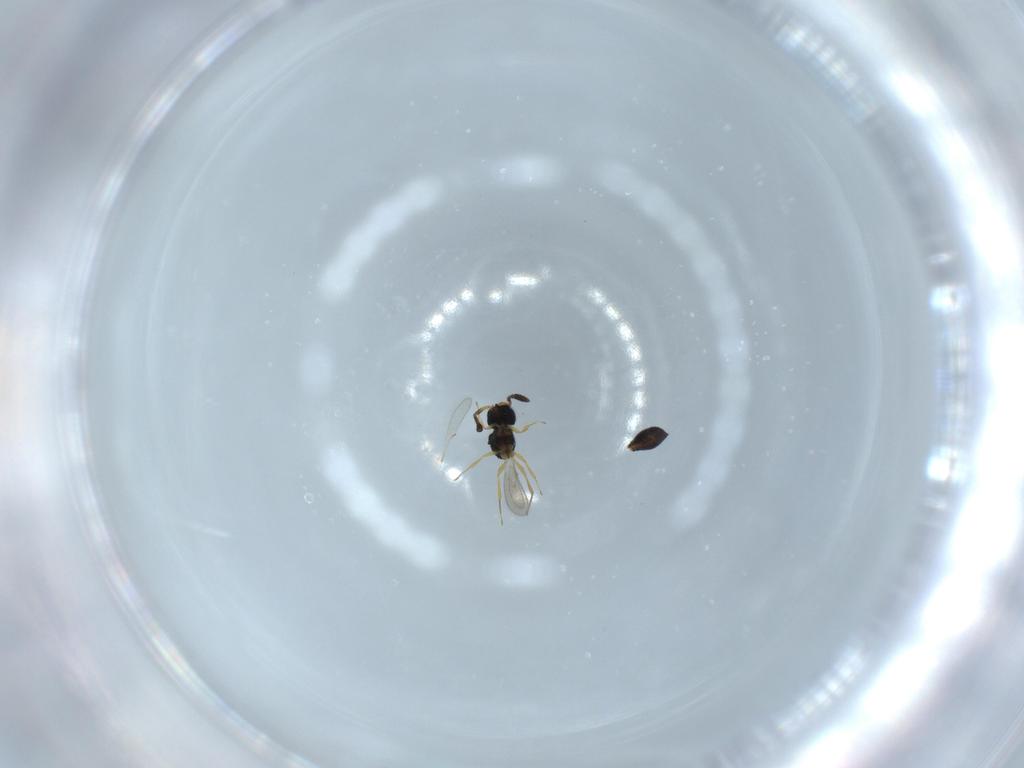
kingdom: Animalia
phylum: Arthropoda
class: Insecta
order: Hymenoptera
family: Scelionidae
